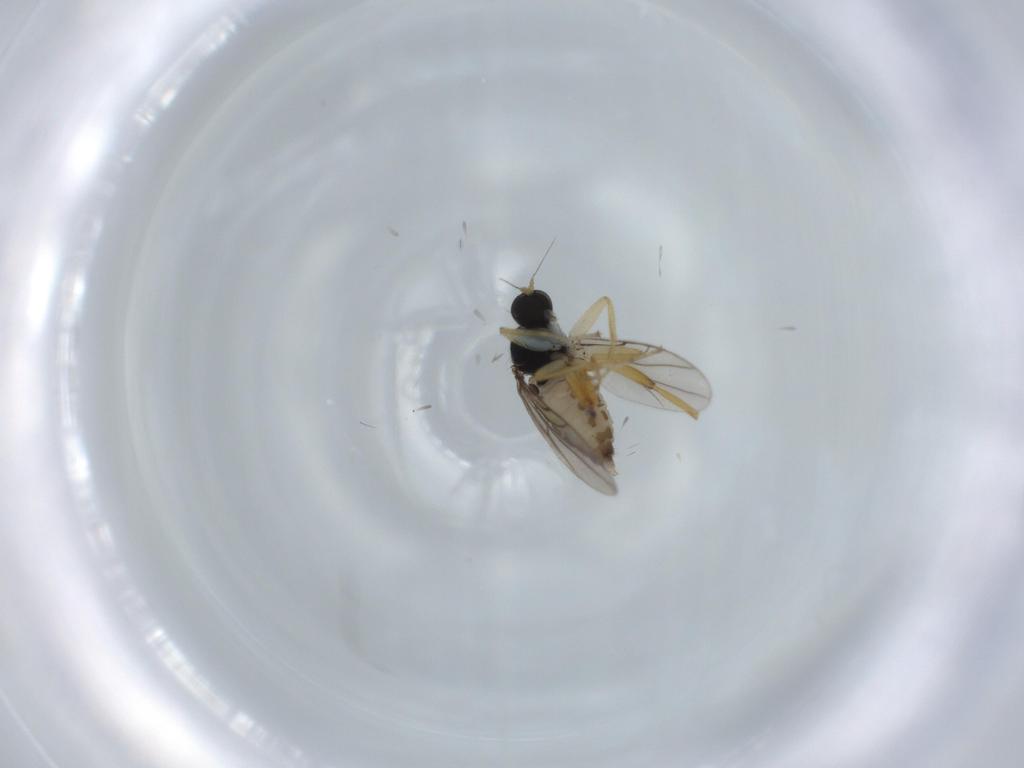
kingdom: Animalia
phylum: Arthropoda
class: Insecta
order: Diptera
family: Hybotidae
